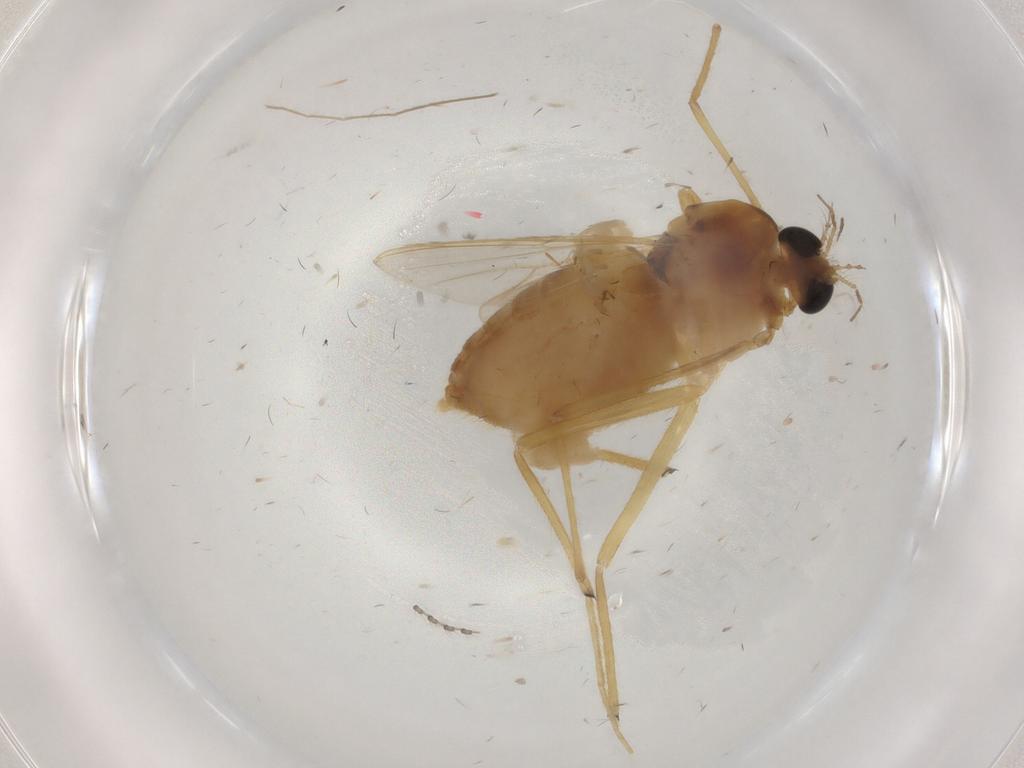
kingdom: Animalia
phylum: Arthropoda
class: Insecta
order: Diptera
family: Chironomidae
